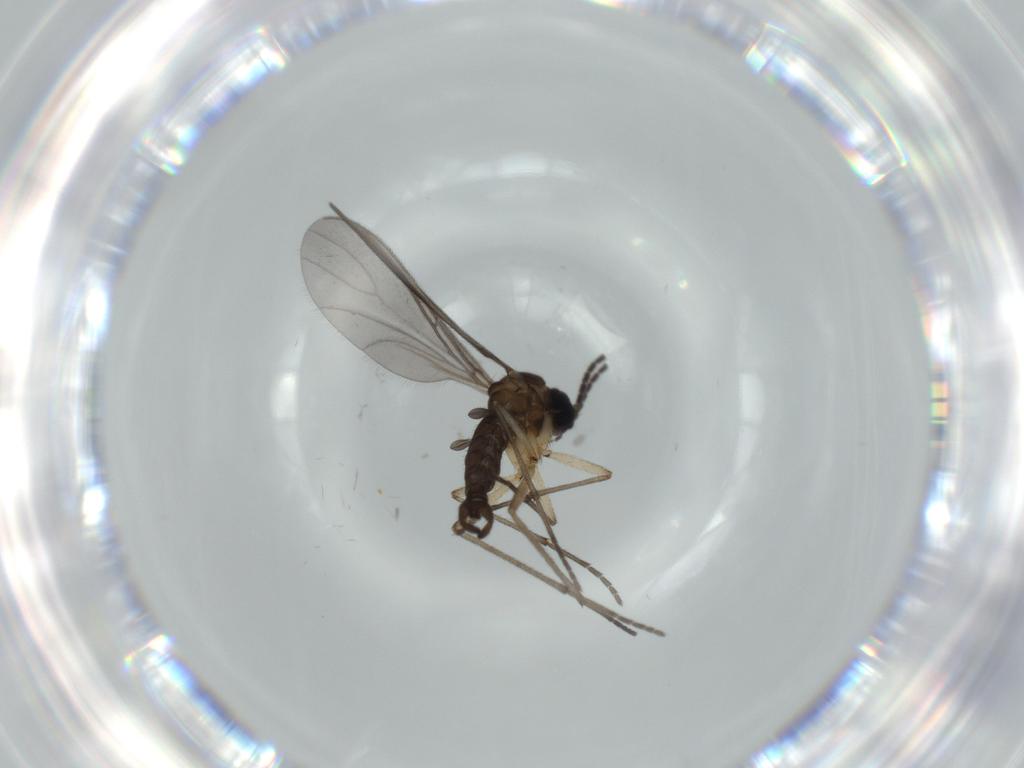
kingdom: Animalia
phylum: Arthropoda
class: Insecta
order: Diptera
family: Sciaridae
